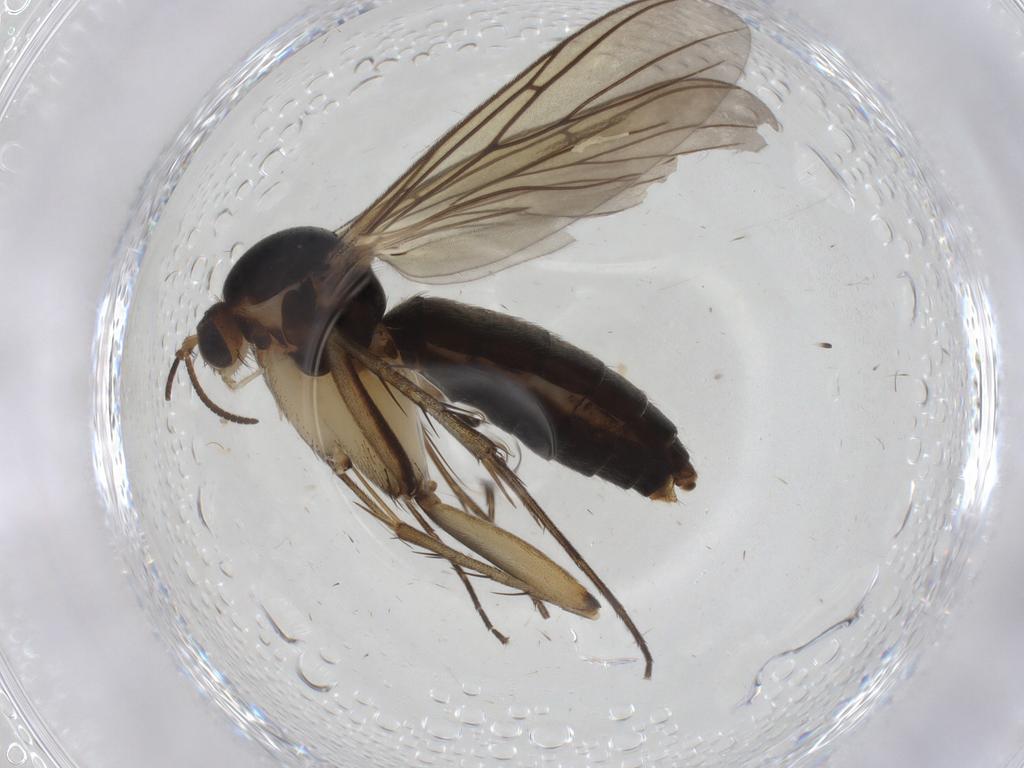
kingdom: Animalia
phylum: Arthropoda
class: Insecta
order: Diptera
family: Mycetophilidae
